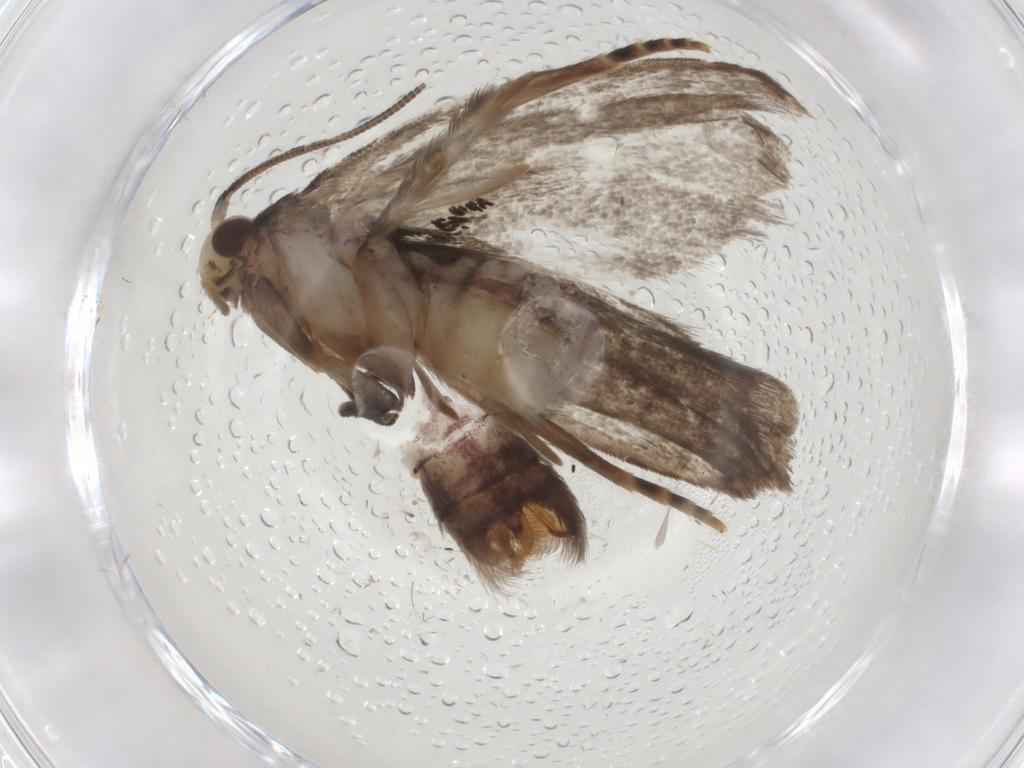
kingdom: Animalia
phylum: Arthropoda
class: Insecta
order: Lepidoptera
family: Dryadaulidae
